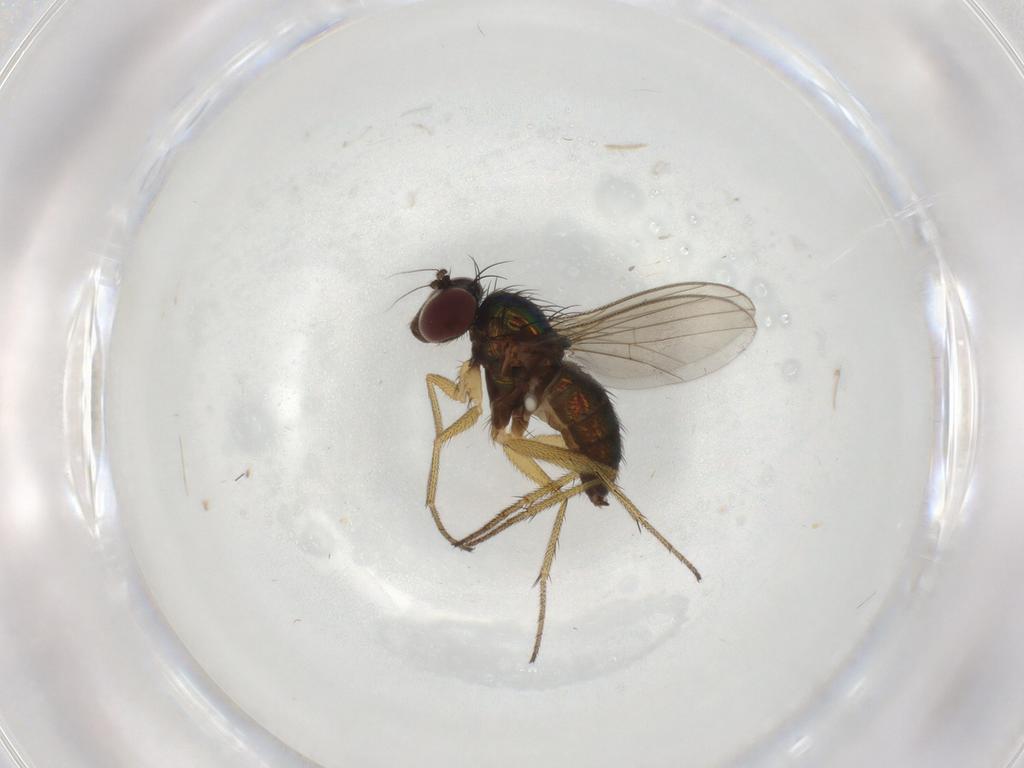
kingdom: Animalia
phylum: Arthropoda
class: Insecta
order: Diptera
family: Dolichopodidae
